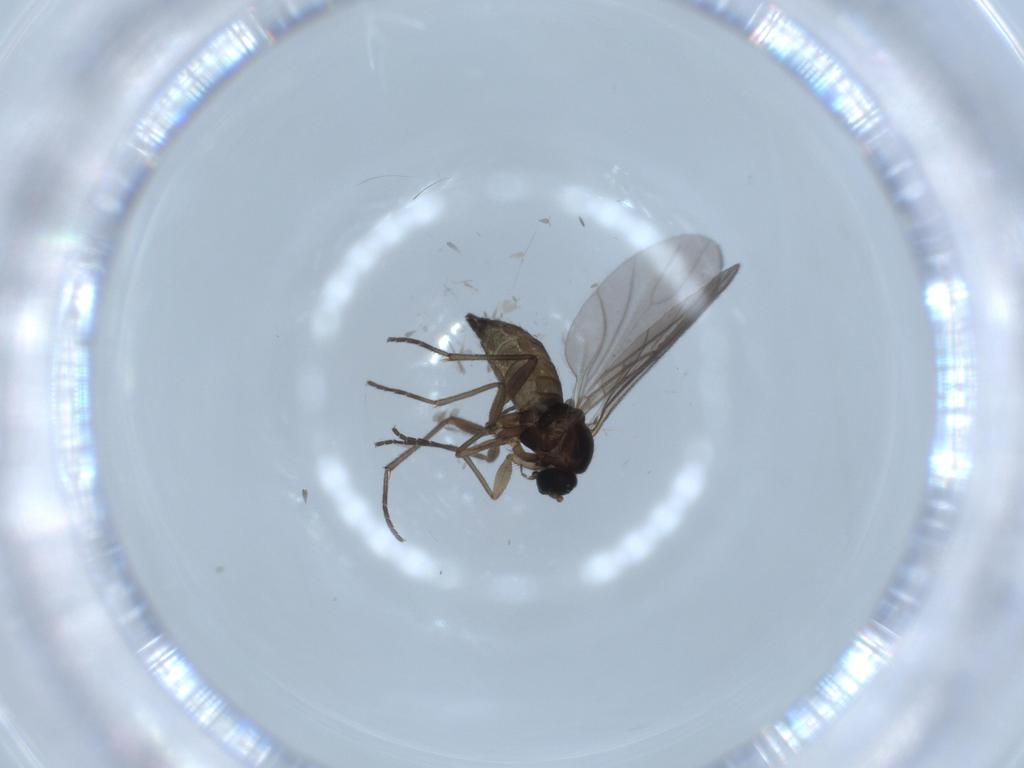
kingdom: Animalia
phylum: Arthropoda
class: Insecta
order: Diptera
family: Sciaridae
